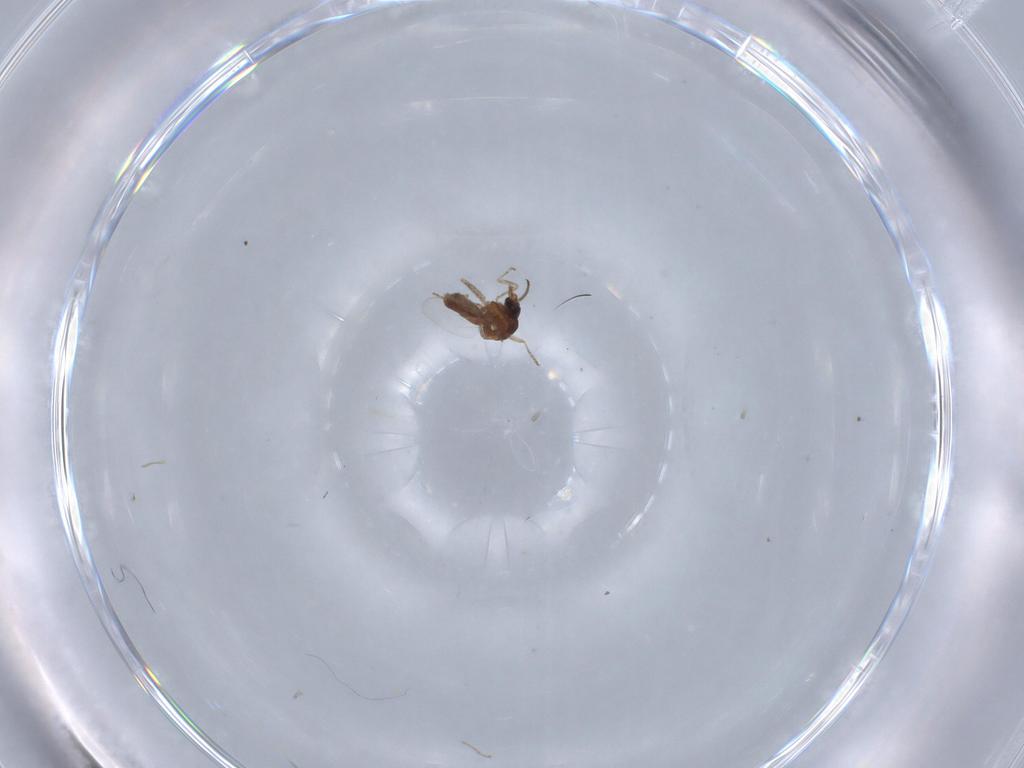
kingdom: Animalia
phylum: Arthropoda
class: Insecta
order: Diptera
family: Ceratopogonidae
